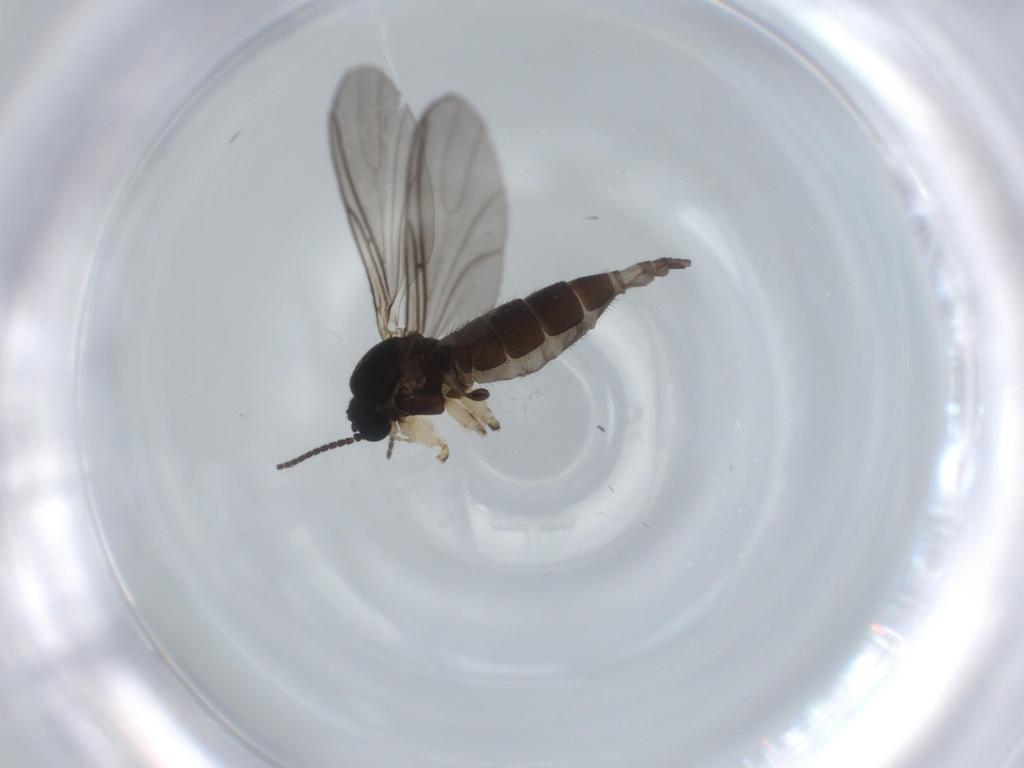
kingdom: Animalia
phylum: Arthropoda
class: Insecta
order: Diptera
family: Sciaridae
